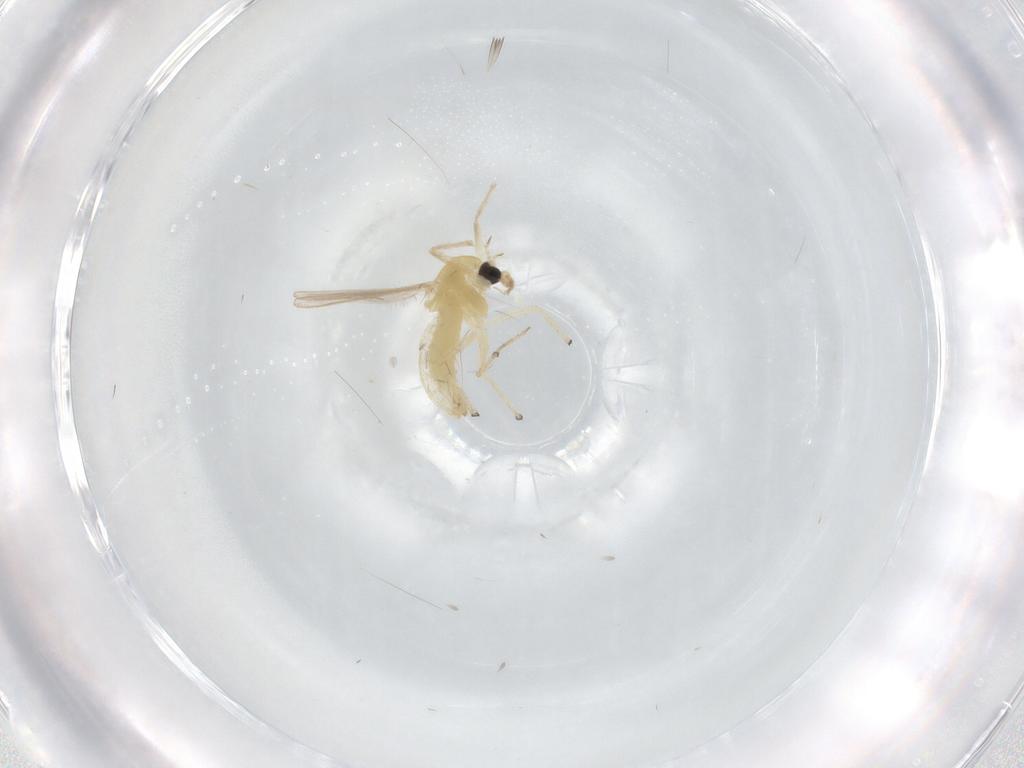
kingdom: Animalia
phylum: Arthropoda
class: Insecta
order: Diptera
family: Chironomidae
